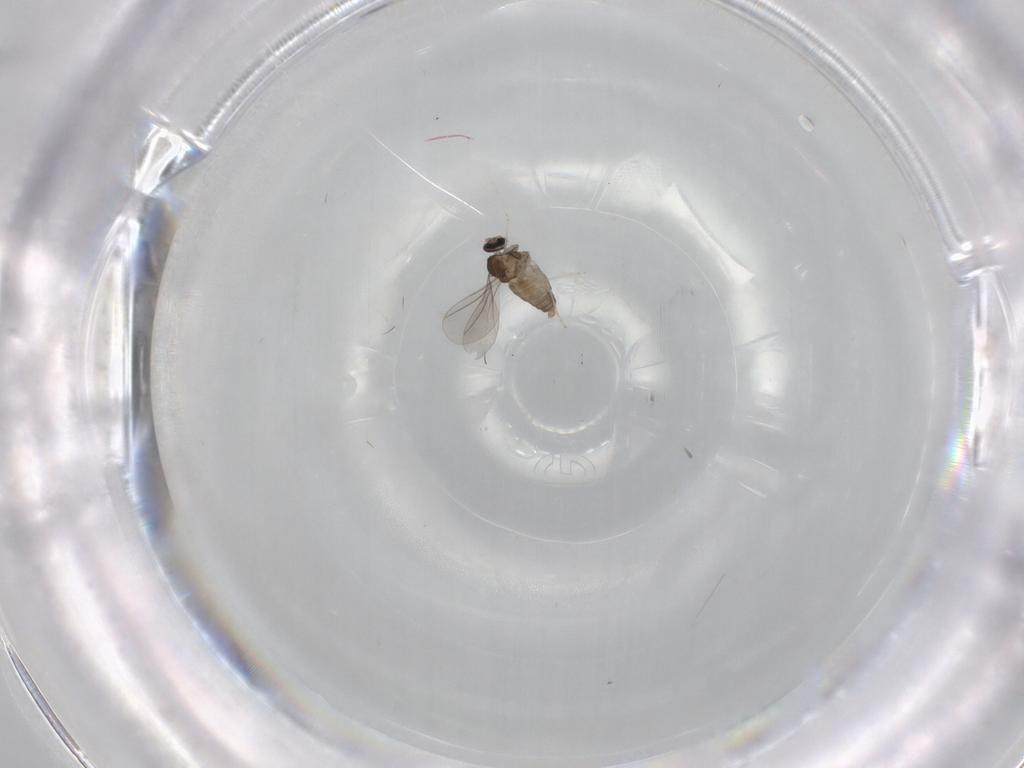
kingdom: Animalia
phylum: Arthropoda
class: Insecta
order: Diptera
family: Cecidomyiidae
